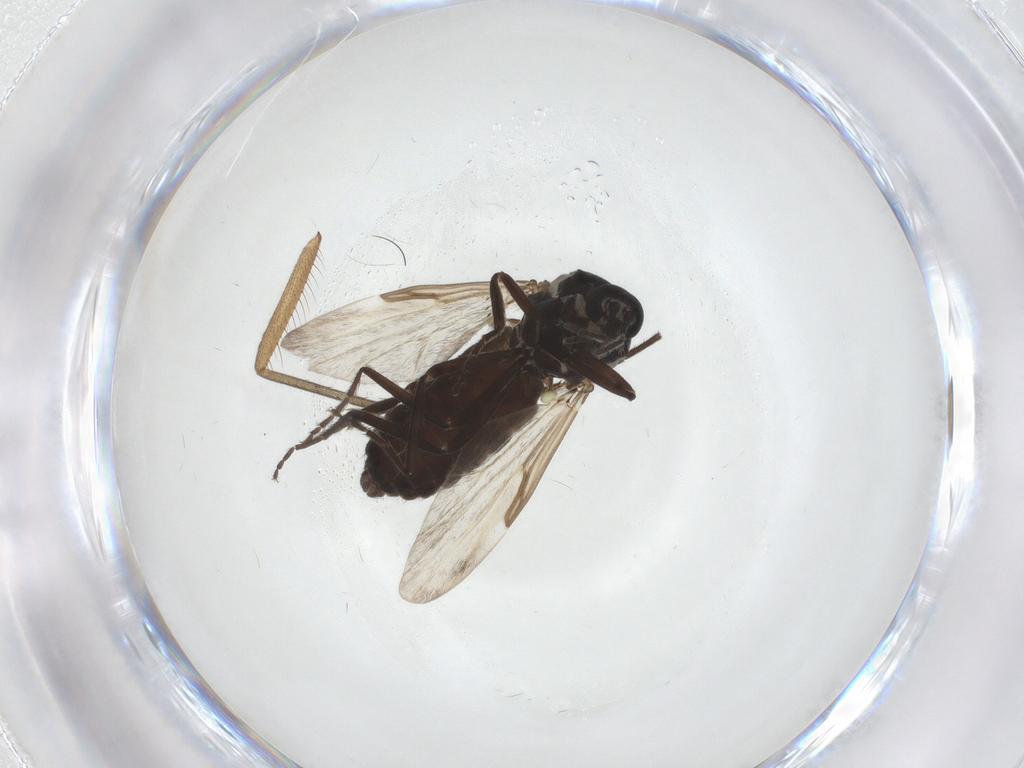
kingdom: Animalia
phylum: Arthropoda
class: Insecta
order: Diptera
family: Mycetophilidae
